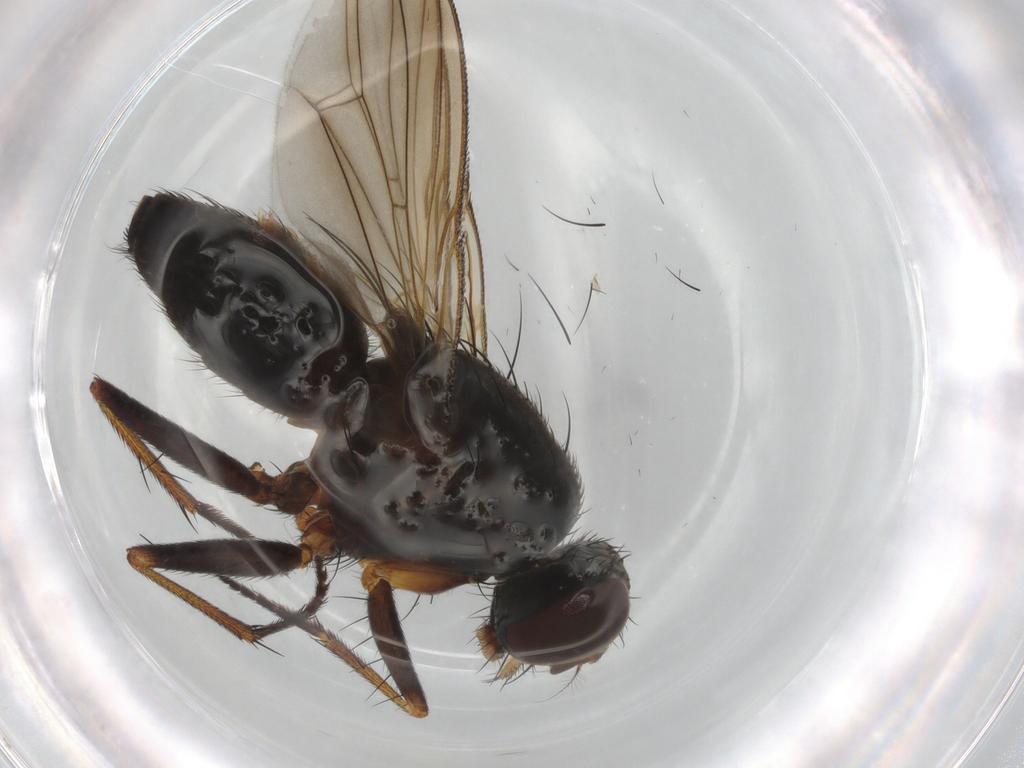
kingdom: Animalia
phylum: Arthropoda
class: Insecta
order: Diptera
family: Muscidae
